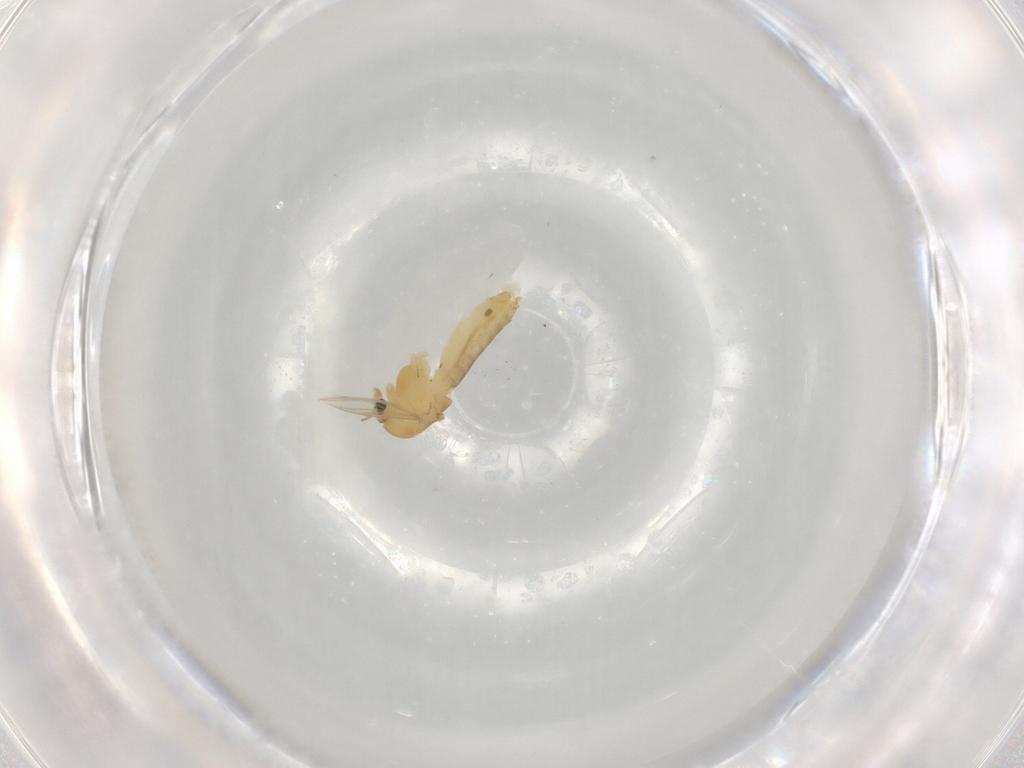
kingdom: Animalia
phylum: Arthropoda
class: Insecta
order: Diptera
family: Chironomidae
